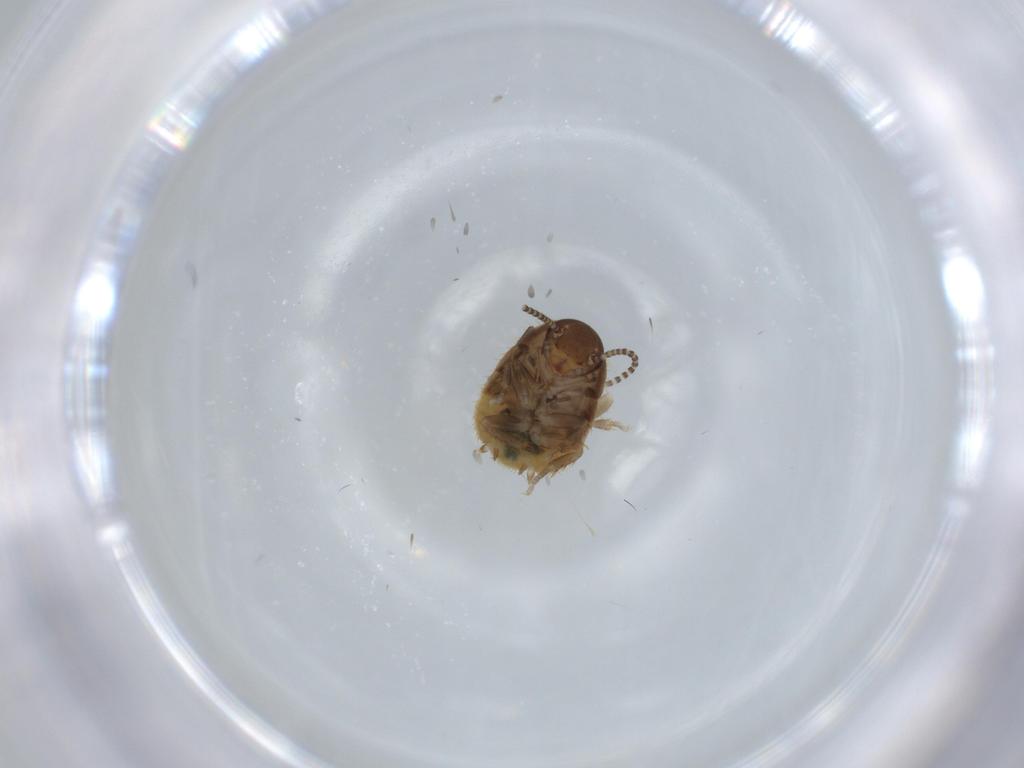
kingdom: Animalia
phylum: Arthropoda
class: Insecta
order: Blattodea
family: Blaberidae
